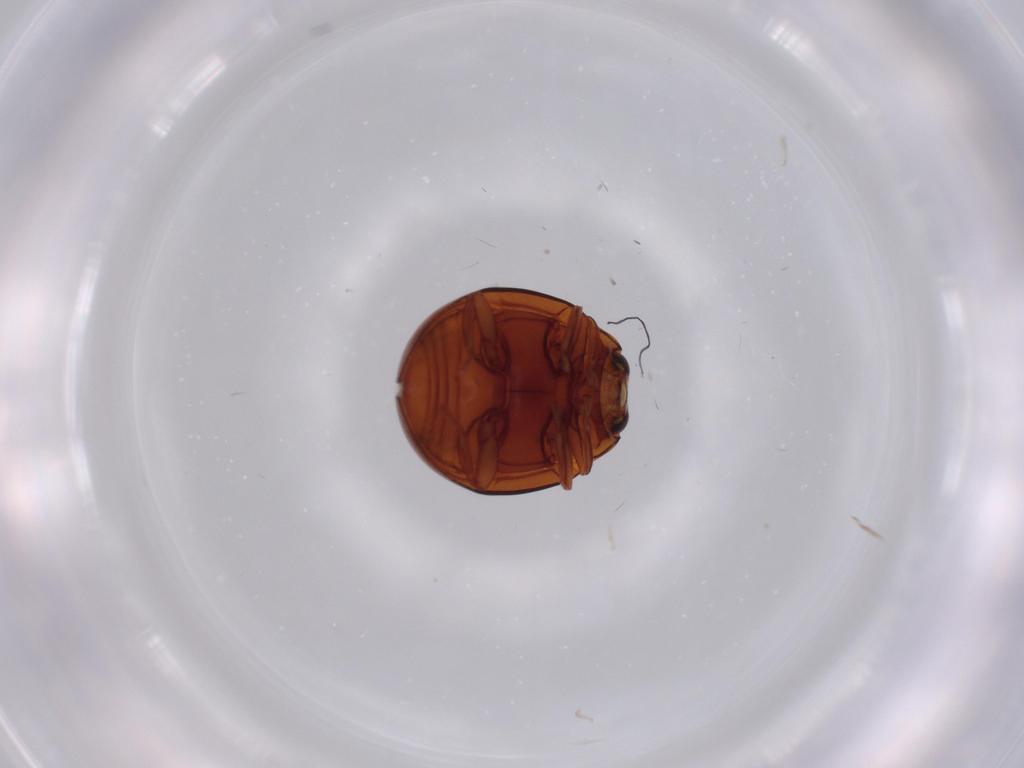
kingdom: Animalia
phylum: Arthropoda
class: Insecta
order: Coleoptera
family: Coccinellidae
